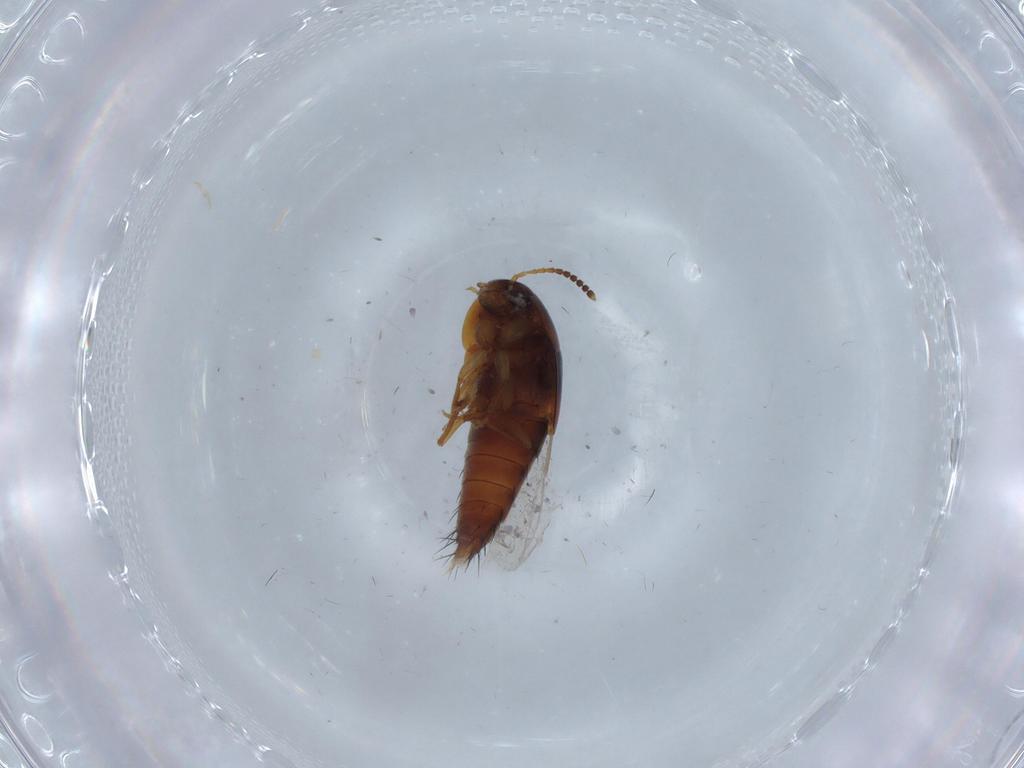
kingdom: Animalia
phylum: Arthropoda
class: Insecta
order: Coleoptera
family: Staphylinidae
